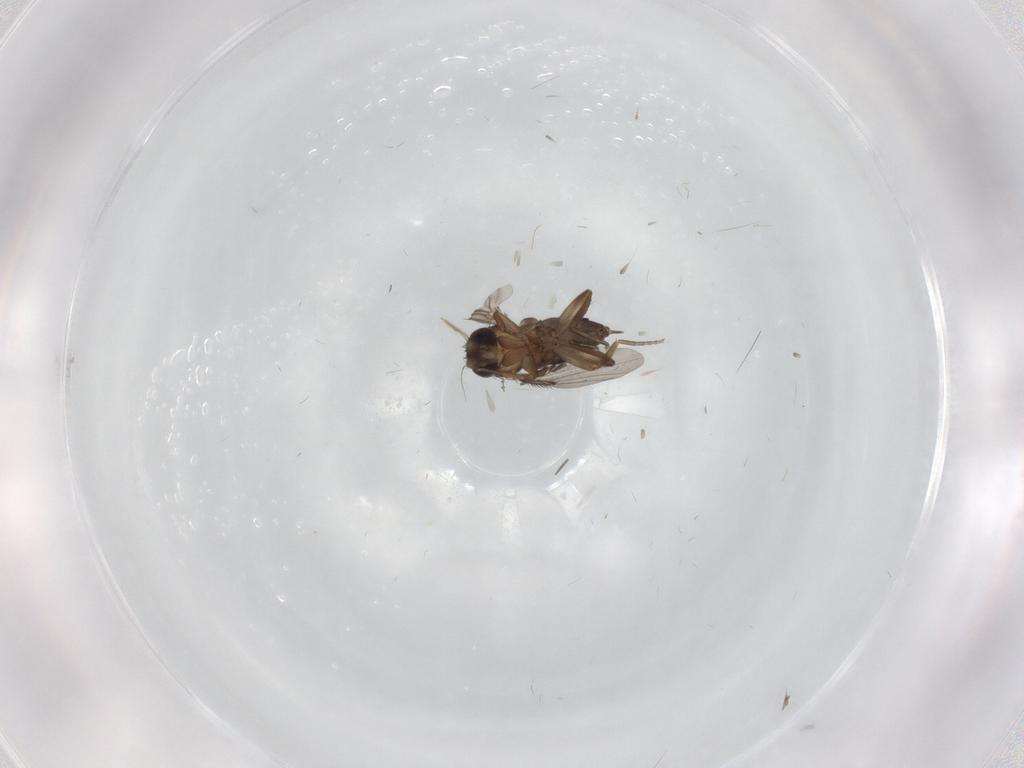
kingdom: Animalia
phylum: Arthropoda
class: Insecta
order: Diptera
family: Phoridae
